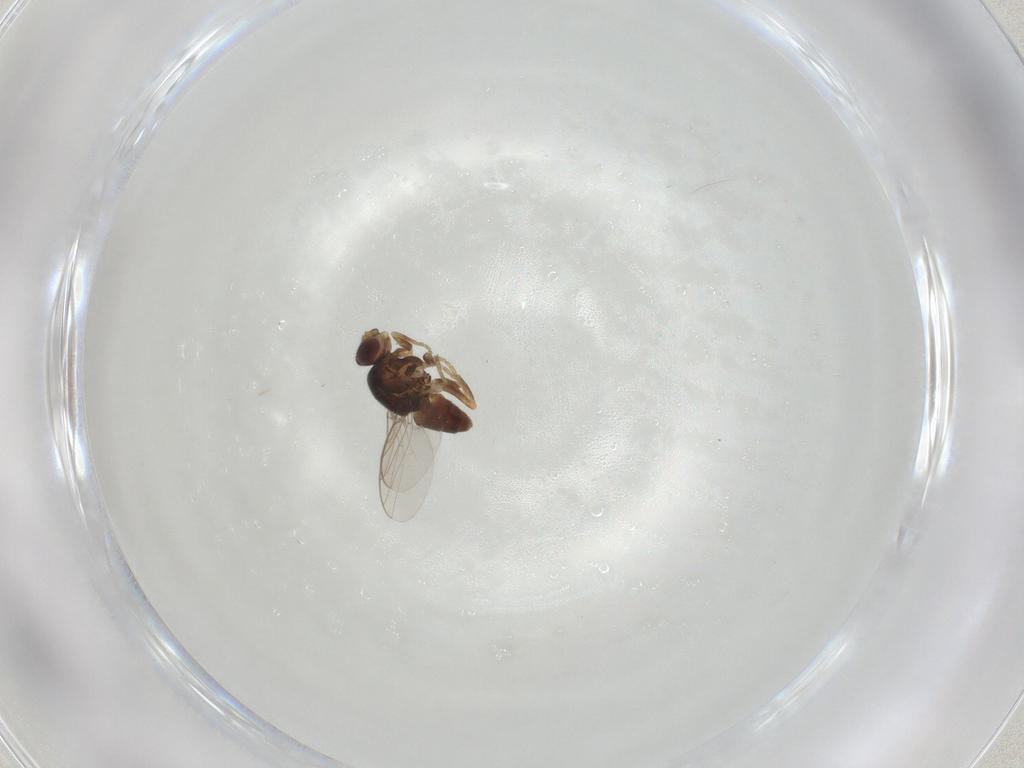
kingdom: Animalia
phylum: Arthropoda
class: Insecta
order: Diptera
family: Chloropidae
